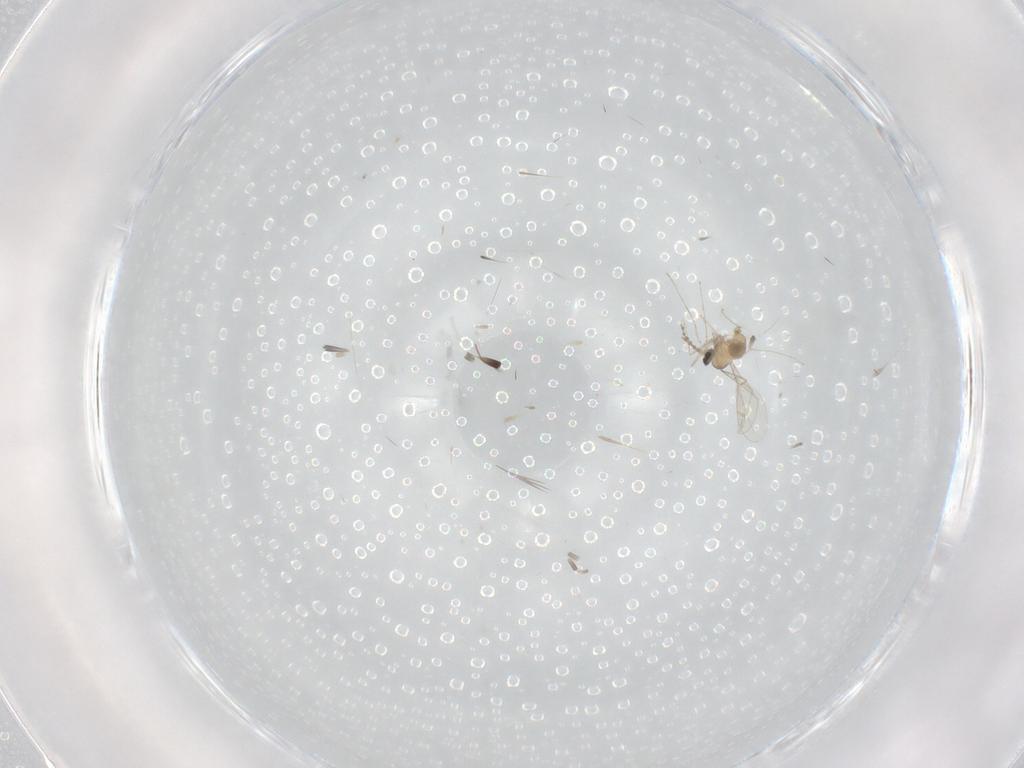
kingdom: Animalia
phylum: Arthropoda
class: Insecta
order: Diptera
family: Cecidomyiidae
